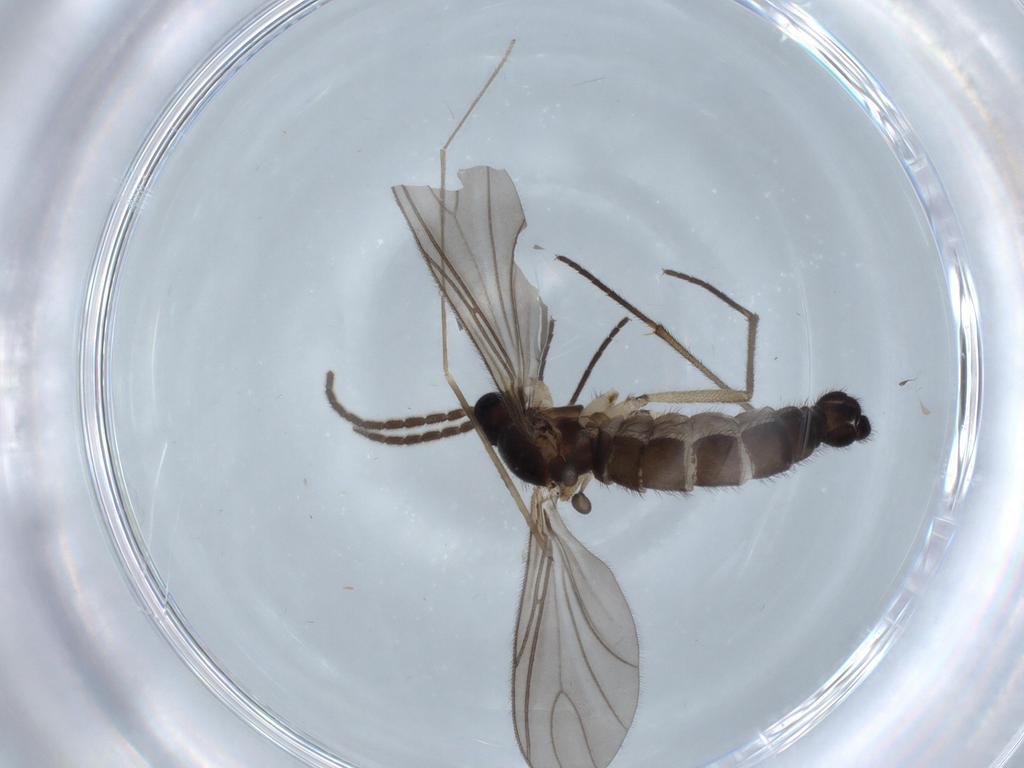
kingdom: Animalia
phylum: Arthropoda
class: Insecta
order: Diptera
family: Sciaridae
